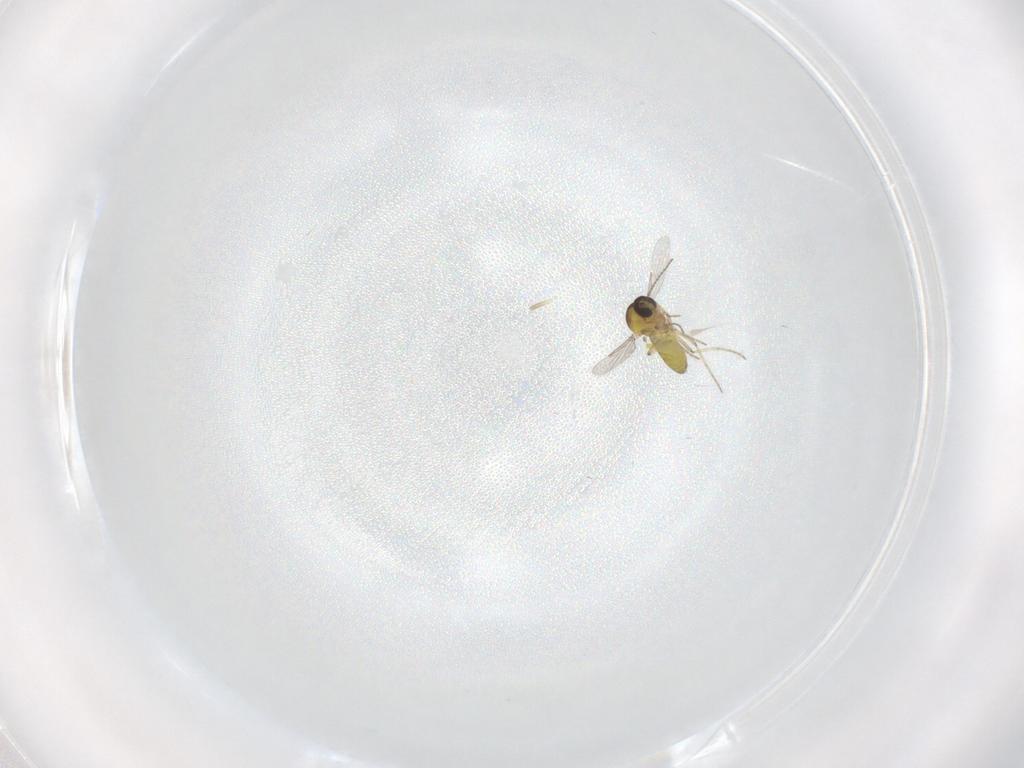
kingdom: Animalia
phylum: Arthropoda
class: Insecta
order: Diptera
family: Ceratopogonidae
